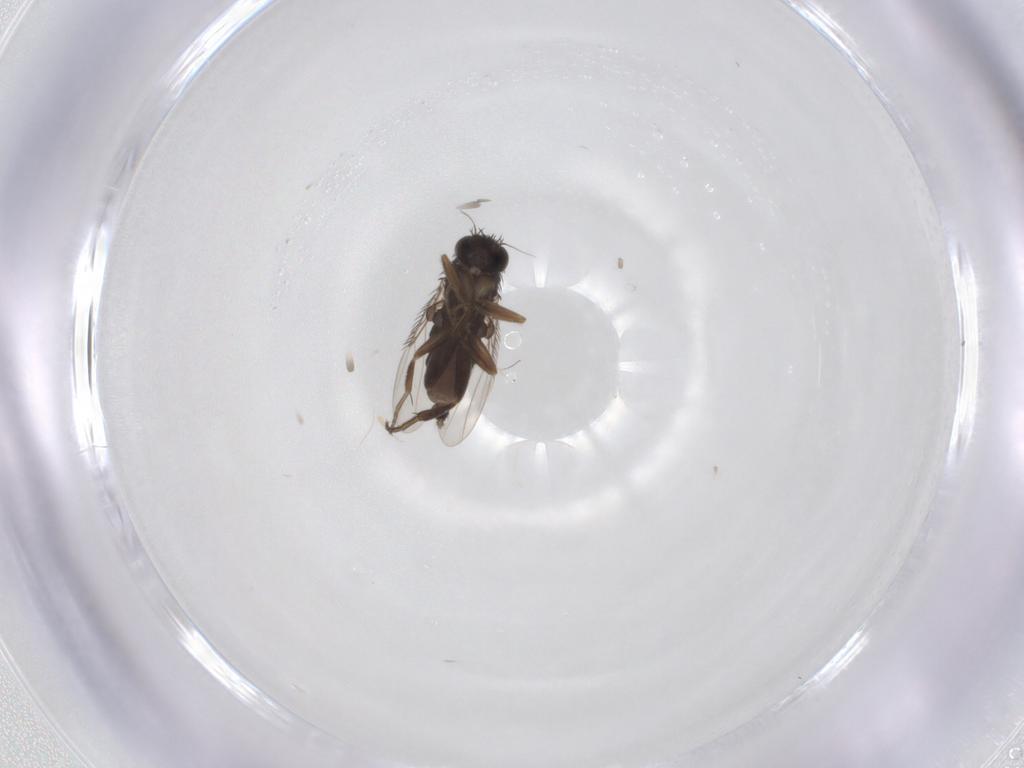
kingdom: Animalia
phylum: Arthropoda
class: Insecta
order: Diptera
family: Phoridae
